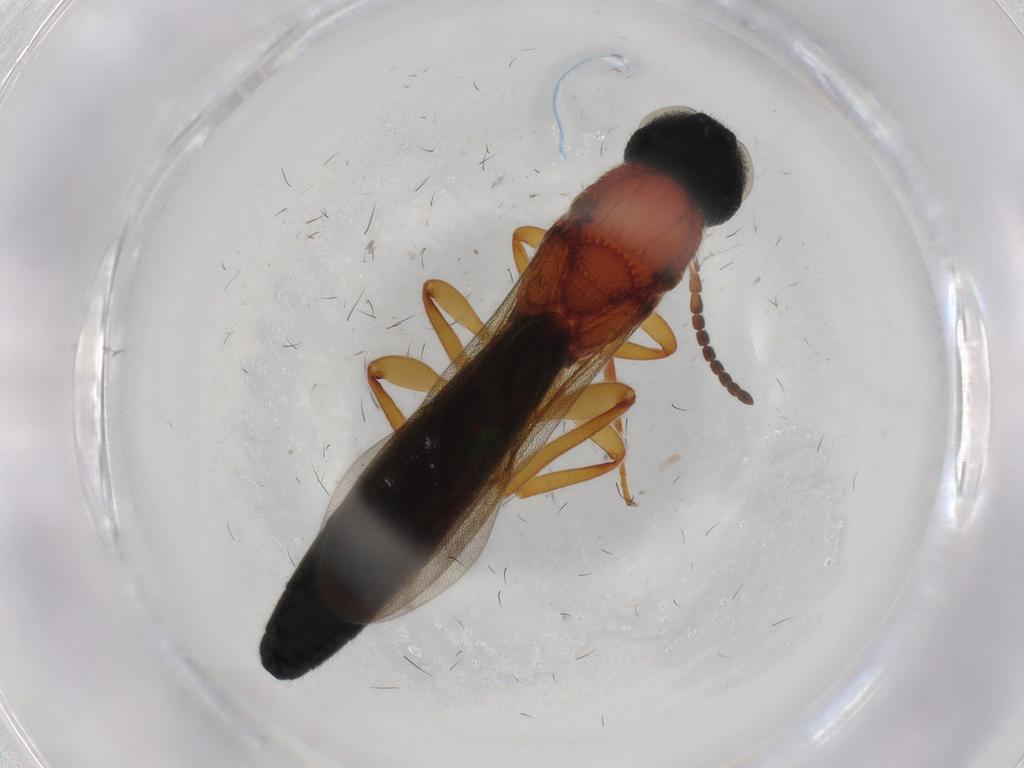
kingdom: Animalia
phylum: Arthropoda
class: Insecta
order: Hymenoptera
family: Scelionidae
